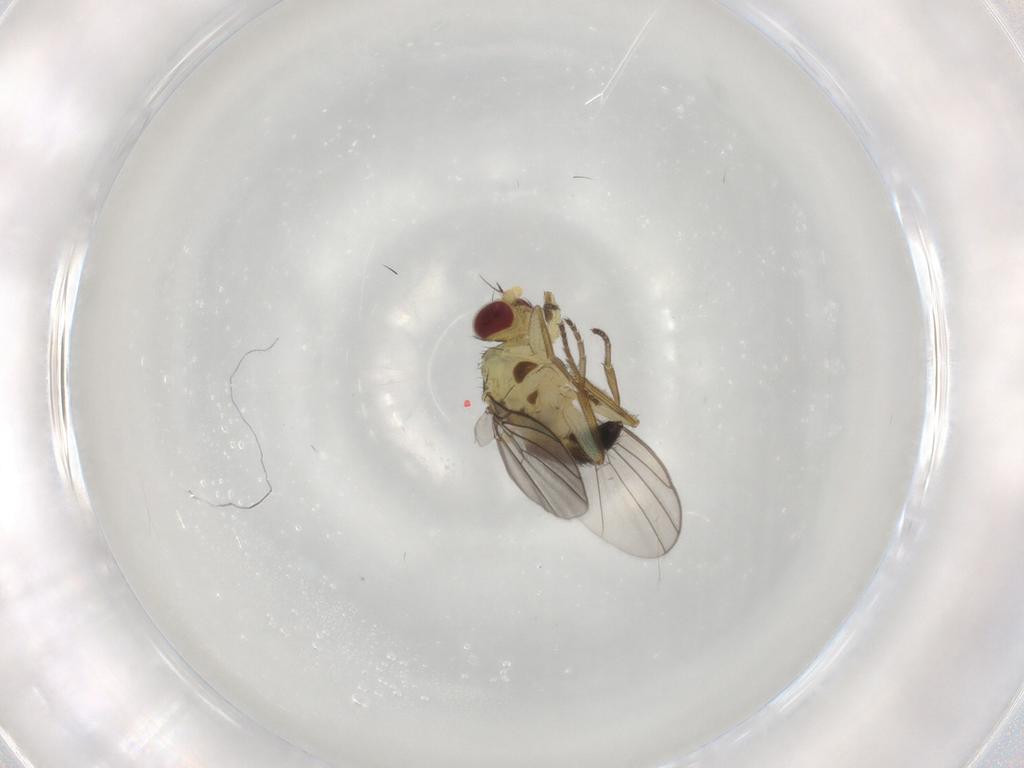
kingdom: Animalia
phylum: Arthropoda
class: Insecta
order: Diptera
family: Agromyzidae
